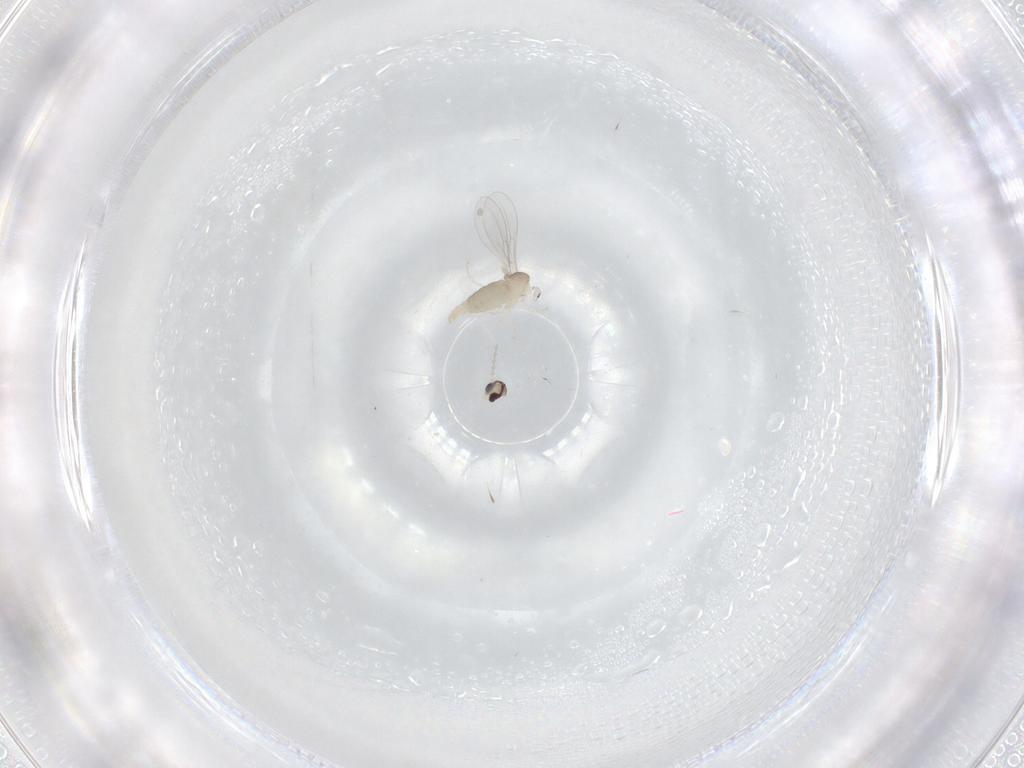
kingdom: Animalia
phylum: Arthropoda
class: Insecta
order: Diptera
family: Cecidomyiidae
